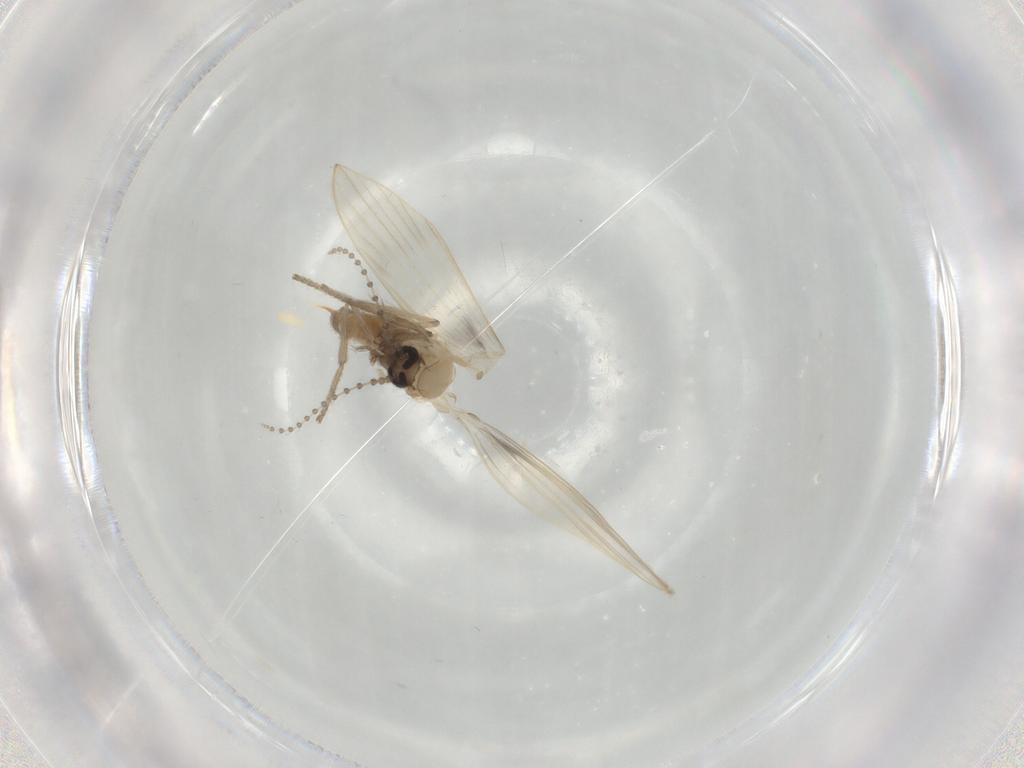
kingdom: Animalia
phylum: Arthropoda
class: Insecta
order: Diptera
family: Psychodidae
